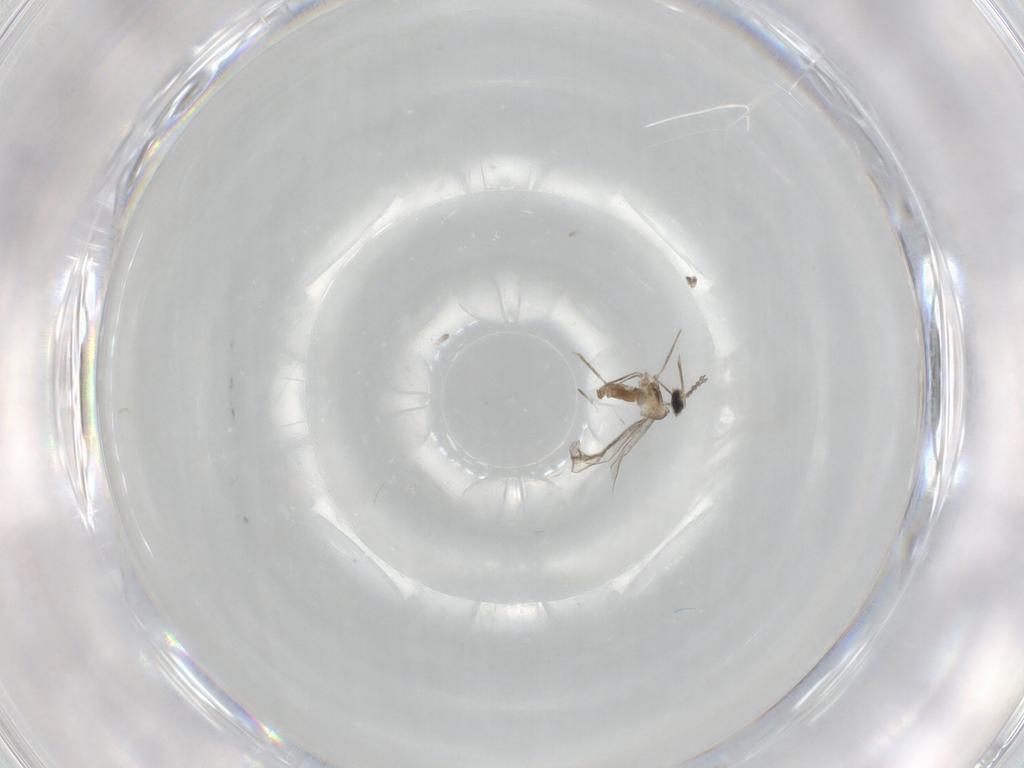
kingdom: Animalia
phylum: Arthropoda
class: Insecta
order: Diptera
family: Cecidomyiidae
